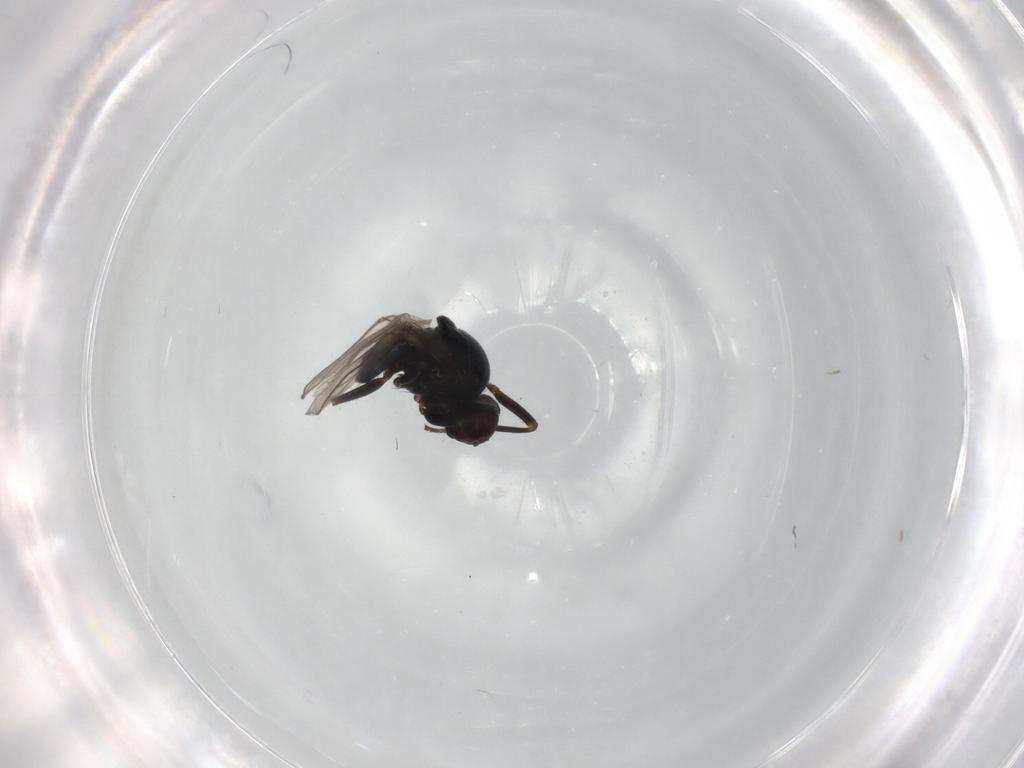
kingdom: Animalia
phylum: Arthropoda
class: Insecta
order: Diptera
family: Chloropidae
